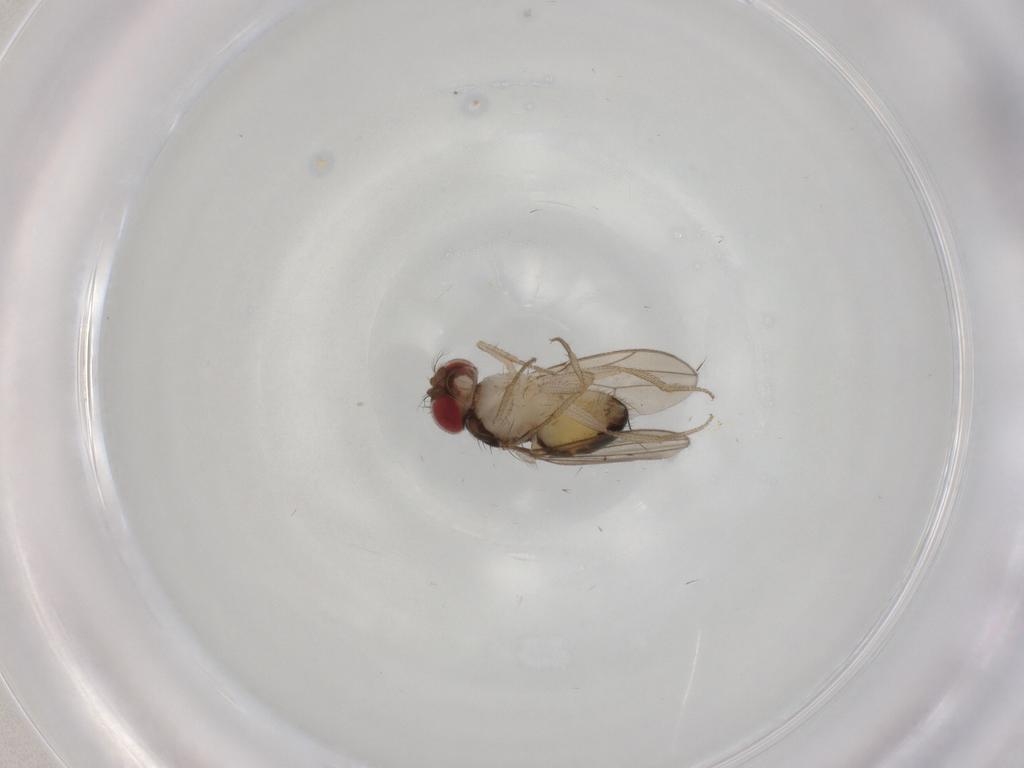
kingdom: Animalia
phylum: Arthropoda
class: Insecta
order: Diptera
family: Drosophilidae
